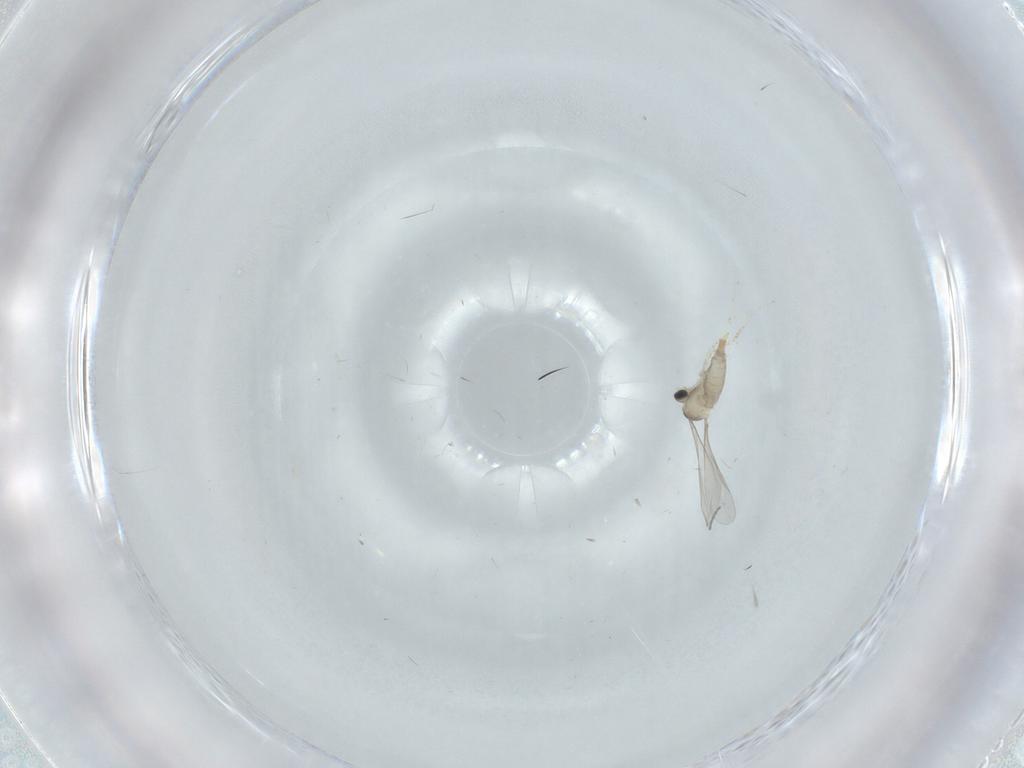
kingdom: Animalia
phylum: Arthropoda
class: Insecta
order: Diptera
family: Cecidomyiidae
